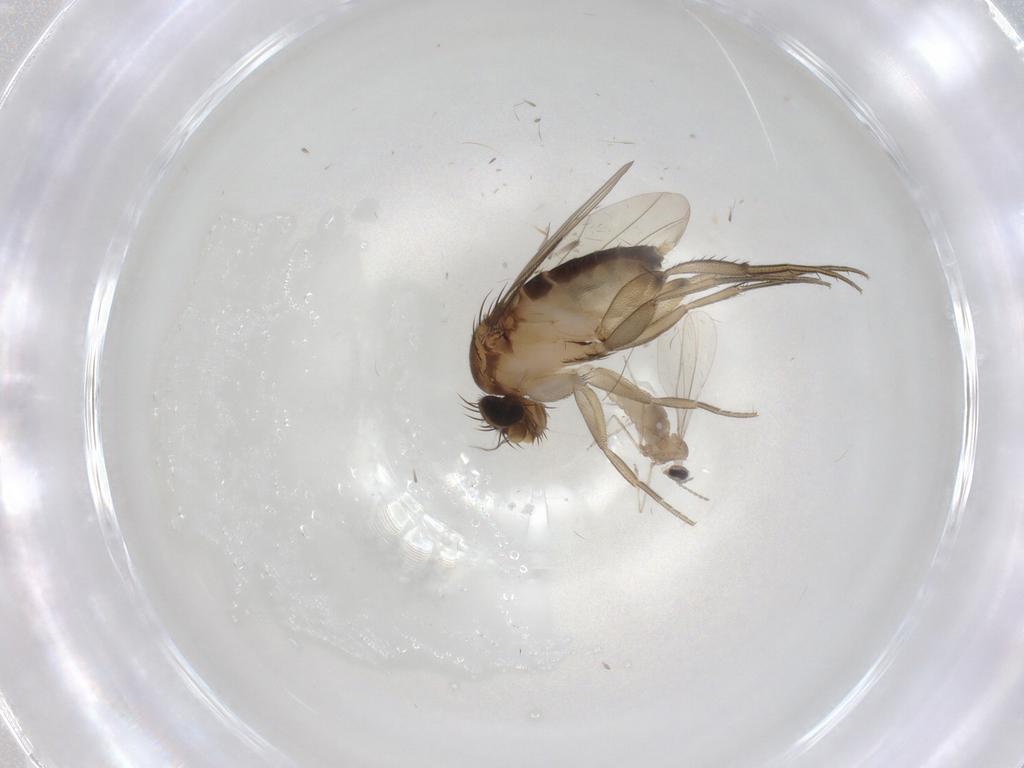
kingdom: Animalia
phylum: Arthropoda
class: Insecta
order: Diptera
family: Phoridae
